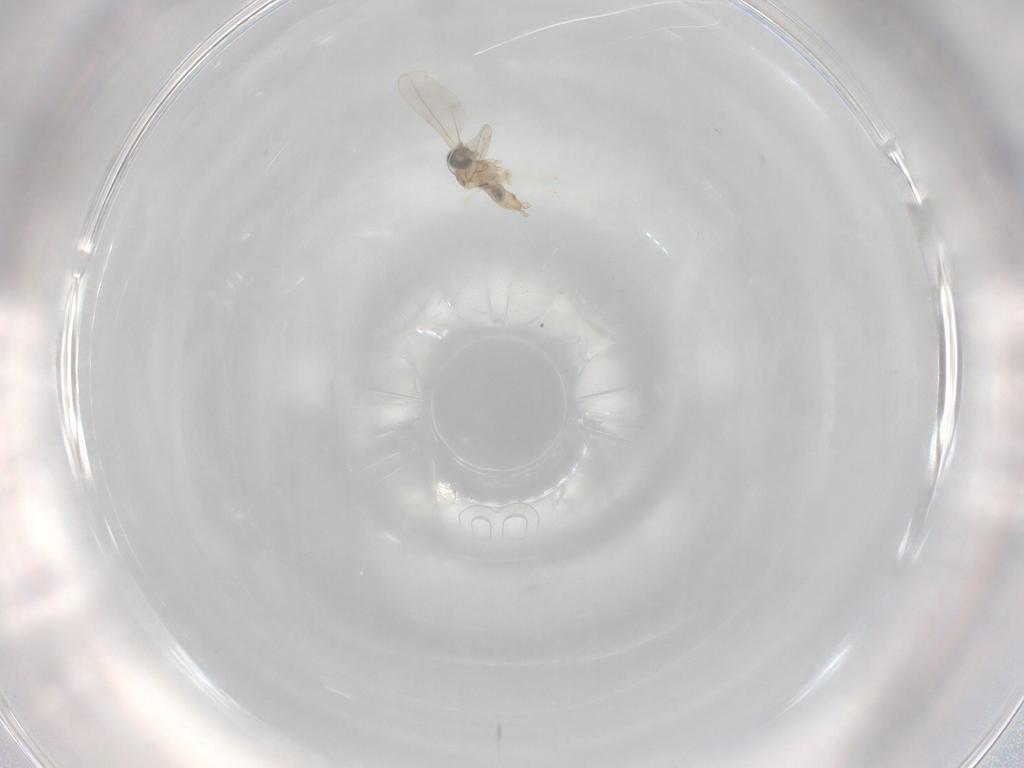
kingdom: Animalia
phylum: Arthropoda
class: Insecta
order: Diptera
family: Cecidomyiidae
